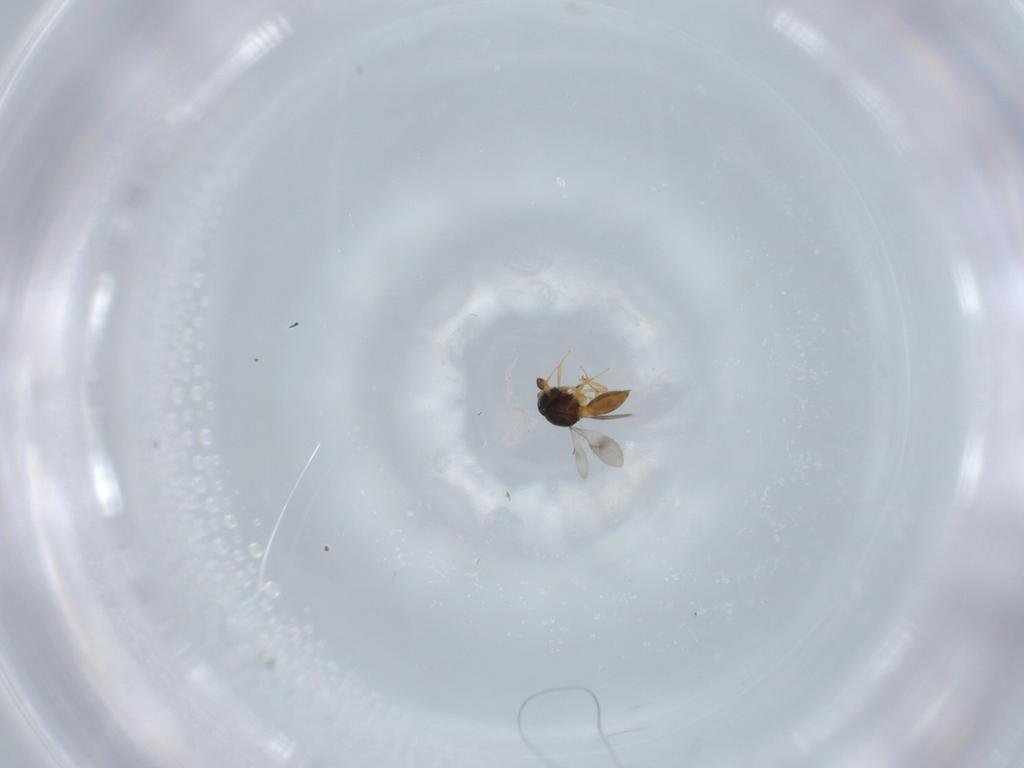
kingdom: Animalia
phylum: Arthropoda
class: Insecta
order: Hymenoptera
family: Scelionidae
